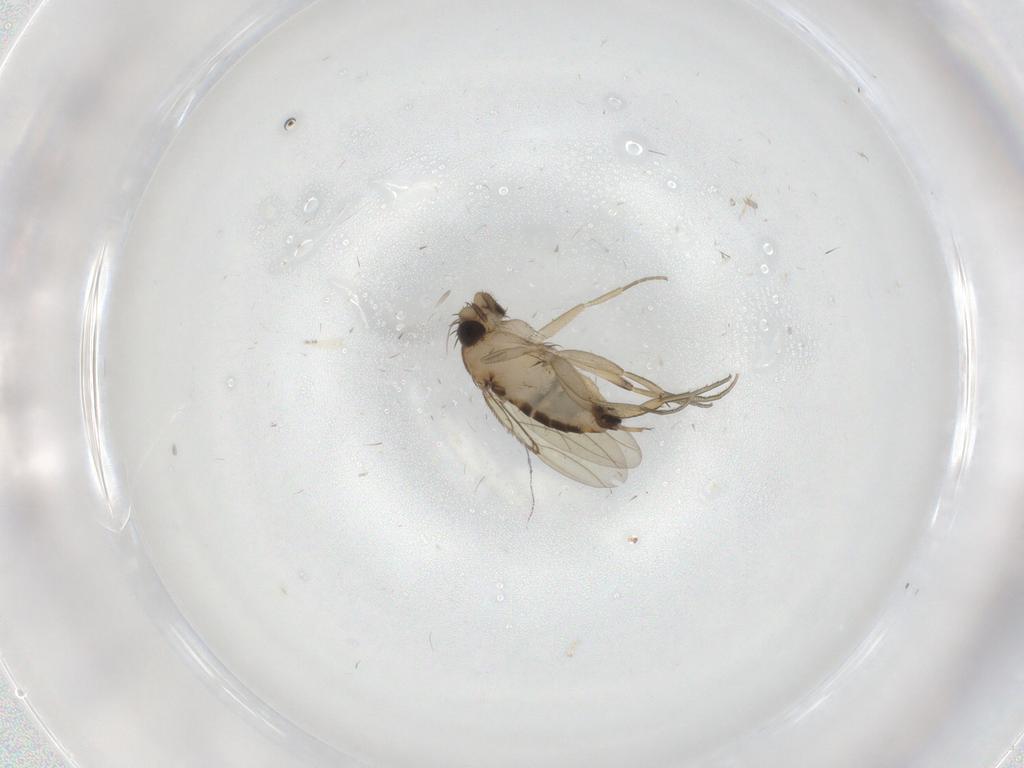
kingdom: Animalia
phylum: Arthropoda
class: Insecta
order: Diptera
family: Phoridae
